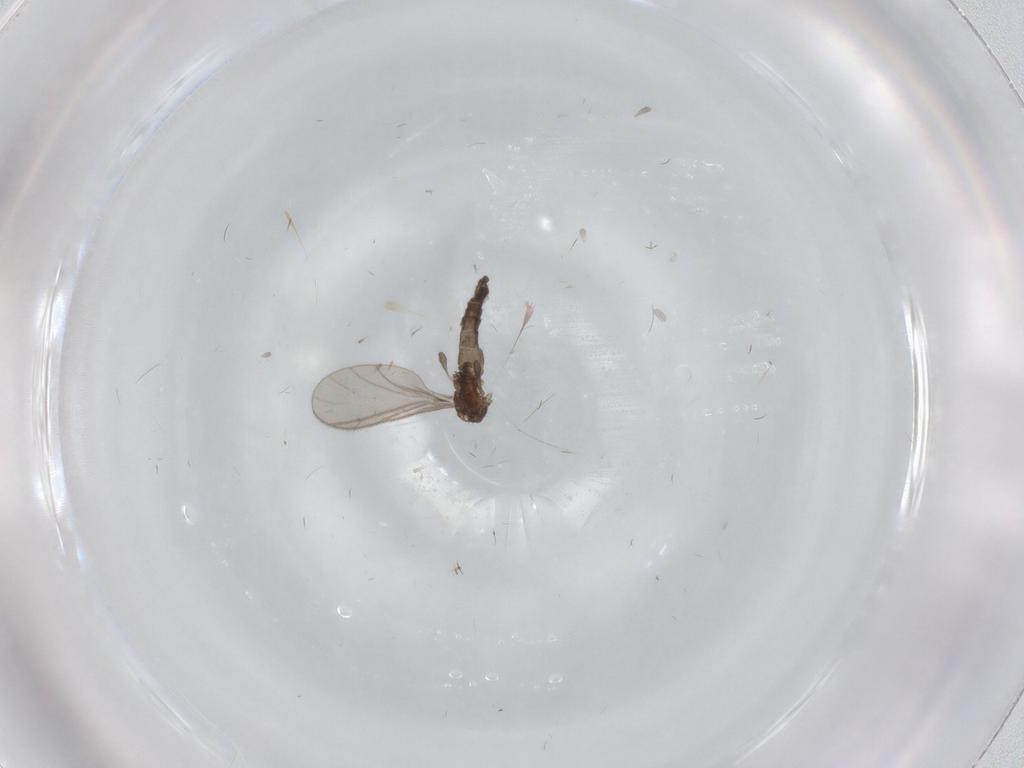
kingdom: Animalia
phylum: Arthropoda
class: Insecta
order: Diptera
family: Sciaridae
